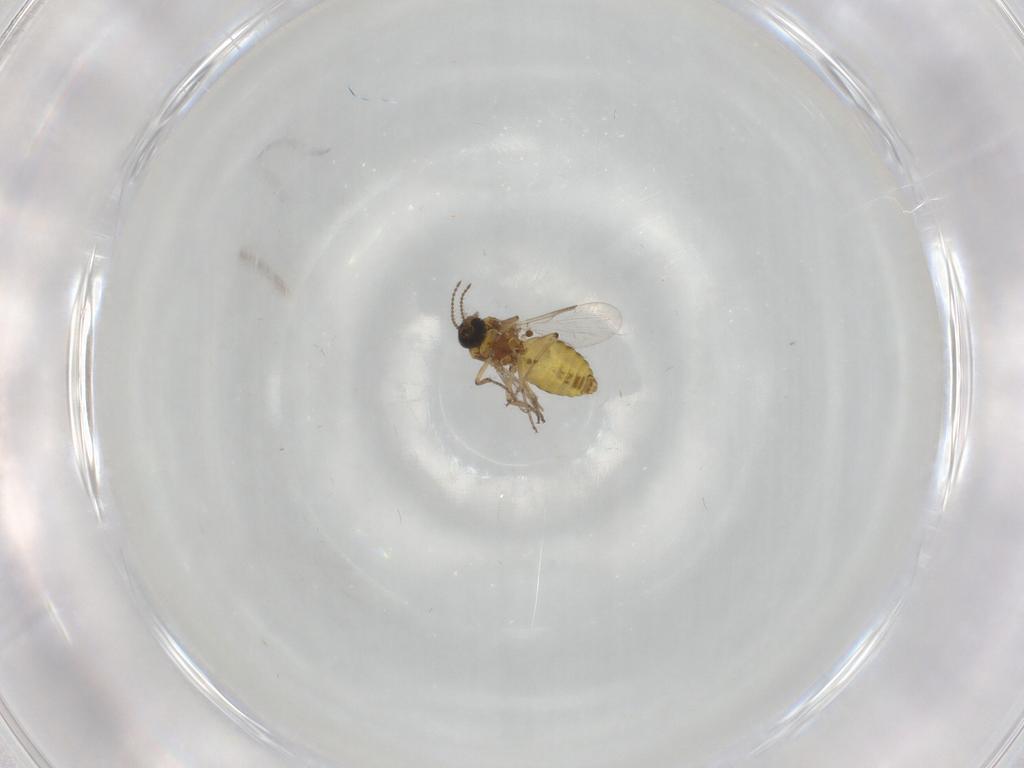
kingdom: Animalia
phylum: Arthropoda
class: Insecta
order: Diptera
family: Ceratopogonidae
